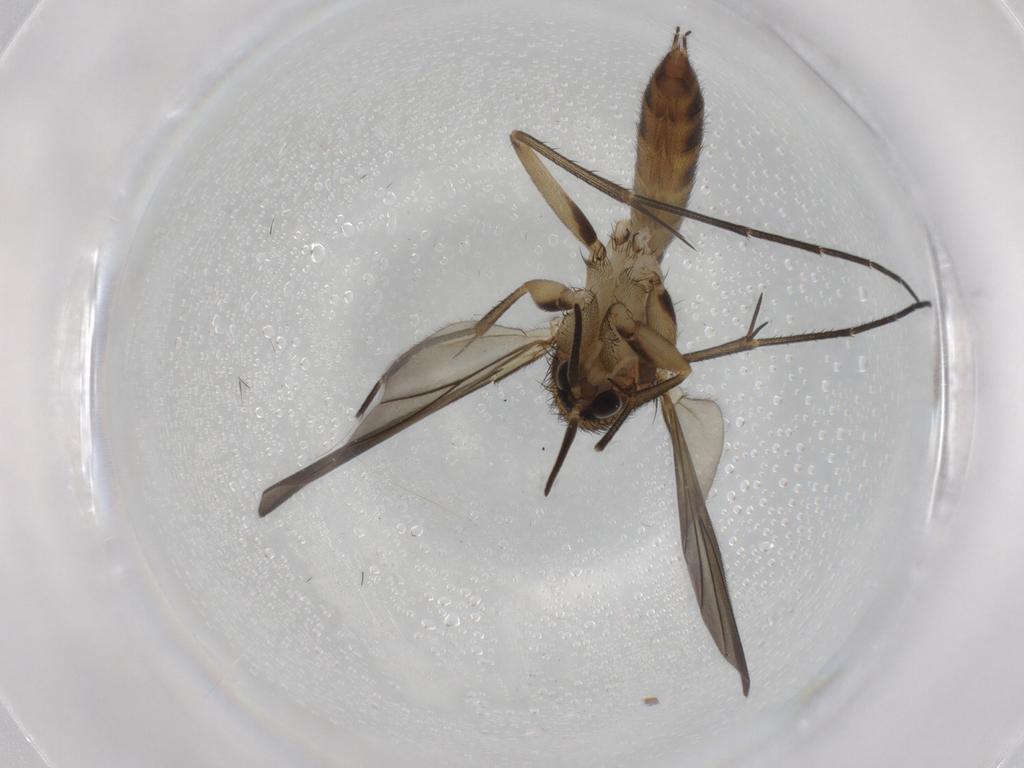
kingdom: Animalia
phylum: Arthropoda
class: Insecta
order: Diptera
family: Mycetophilidae
